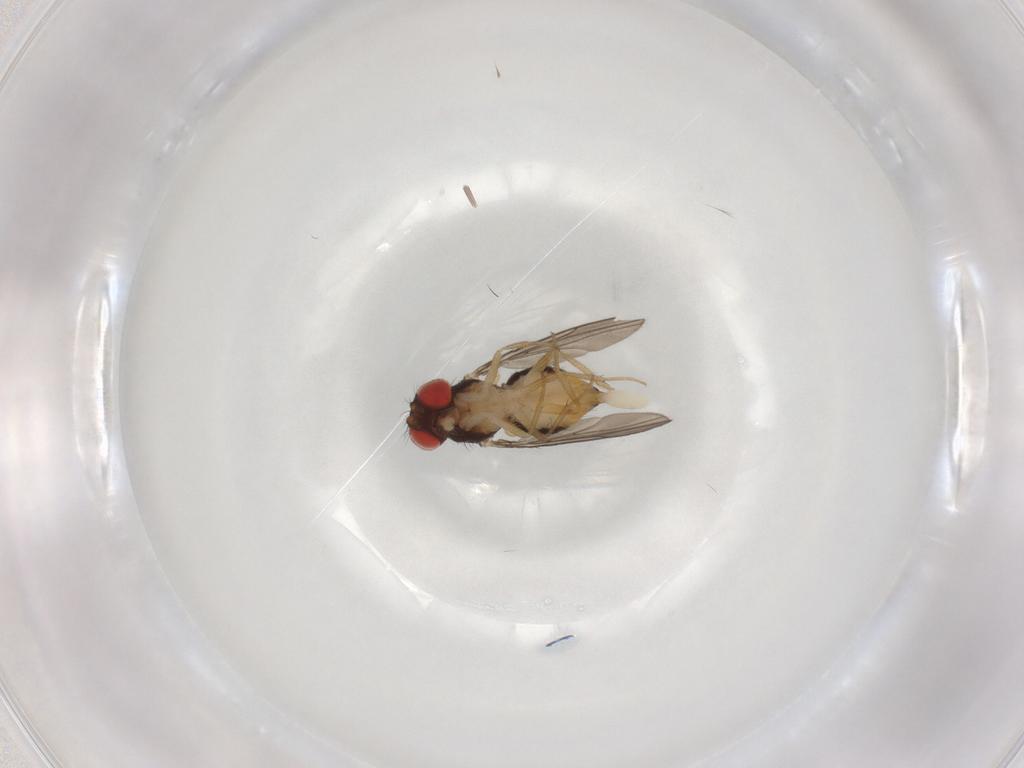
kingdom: Animalia
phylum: Arthropoda
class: Insecta
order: Diptera
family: Drosophilidae
